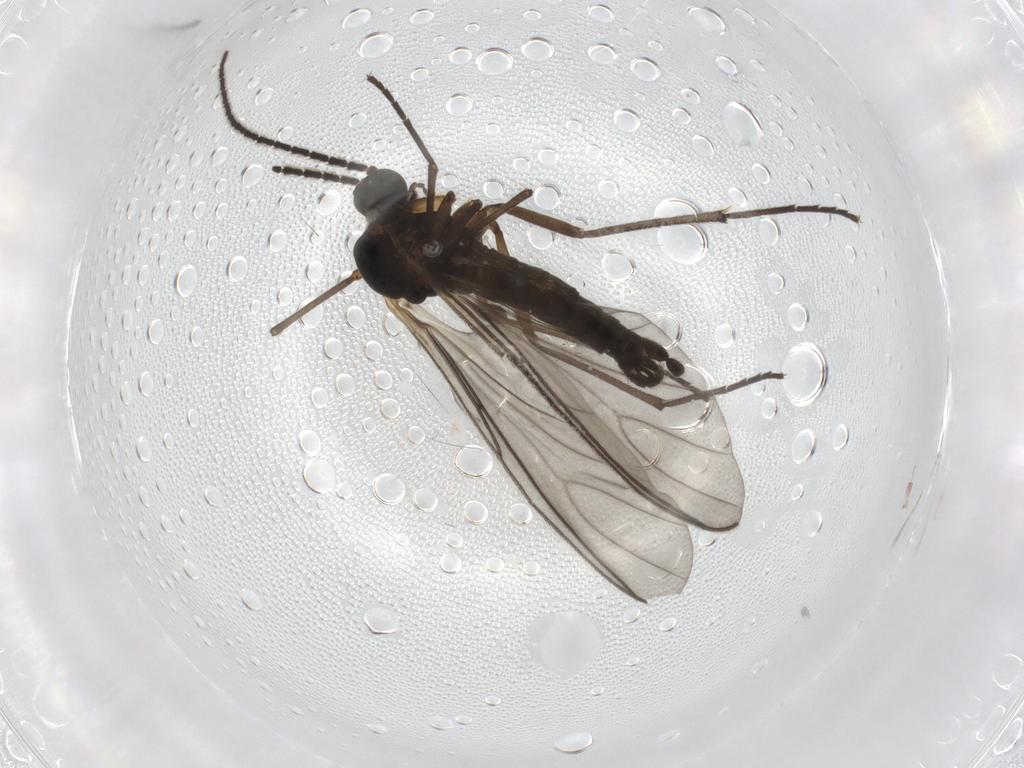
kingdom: Animalia
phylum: Arthropoda
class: Insecta
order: Diptera
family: Sciaridae
